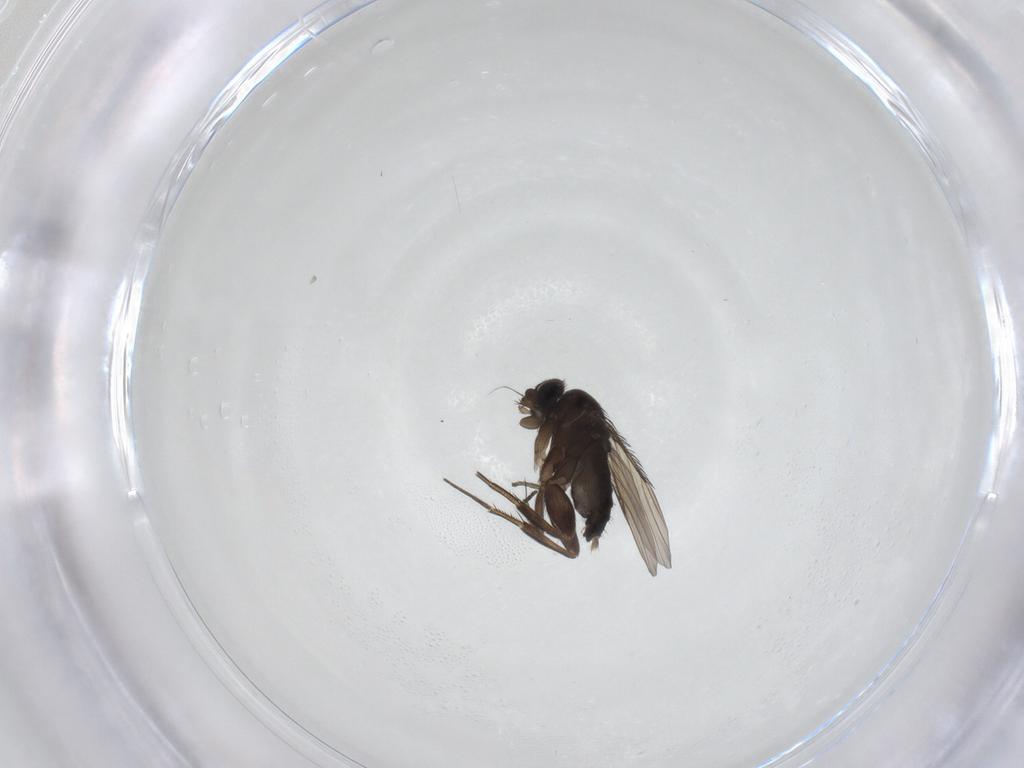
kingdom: Animalia
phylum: Arthropoda
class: Insecta
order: Diptera
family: Phoridae
